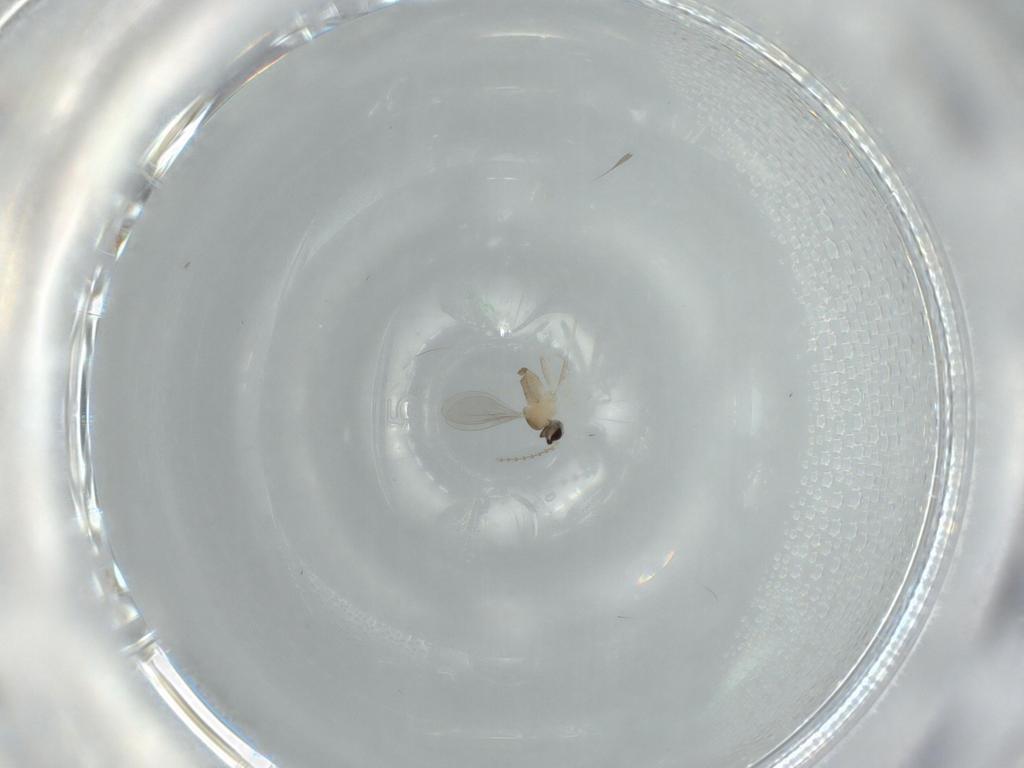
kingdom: Animalia
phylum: Arthropoda
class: Insecta
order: Diptera
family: Cecidomyiidae
